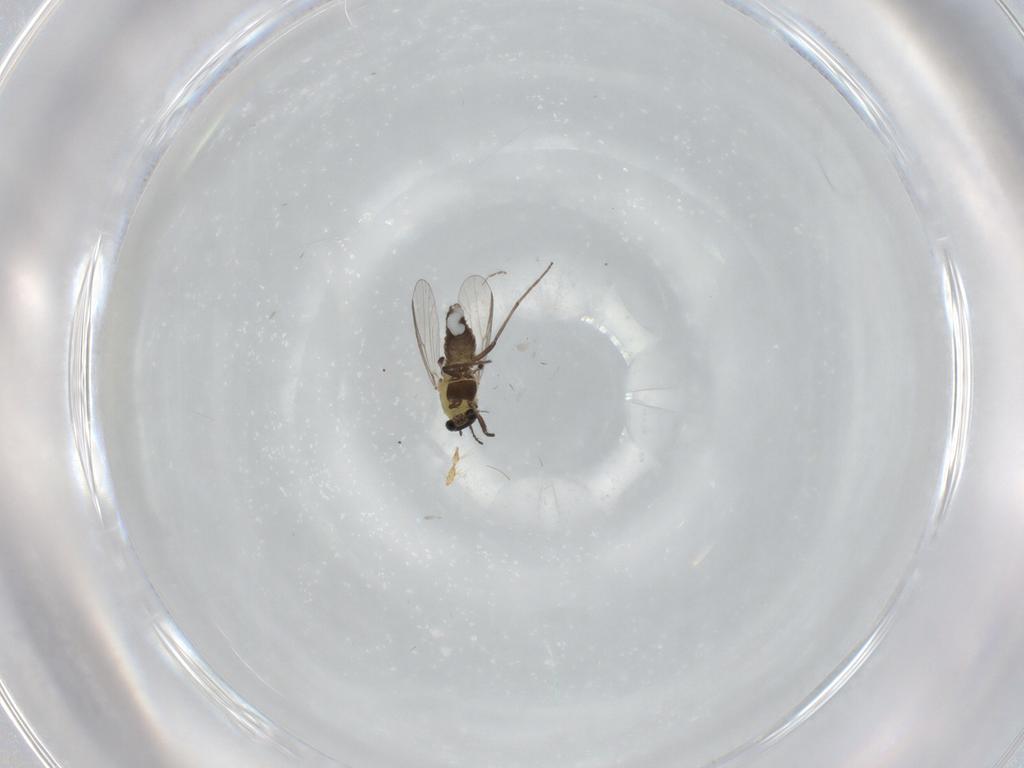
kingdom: Animalia
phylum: Arthropoda
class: Insecta
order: Diptera
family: Chironomidae
